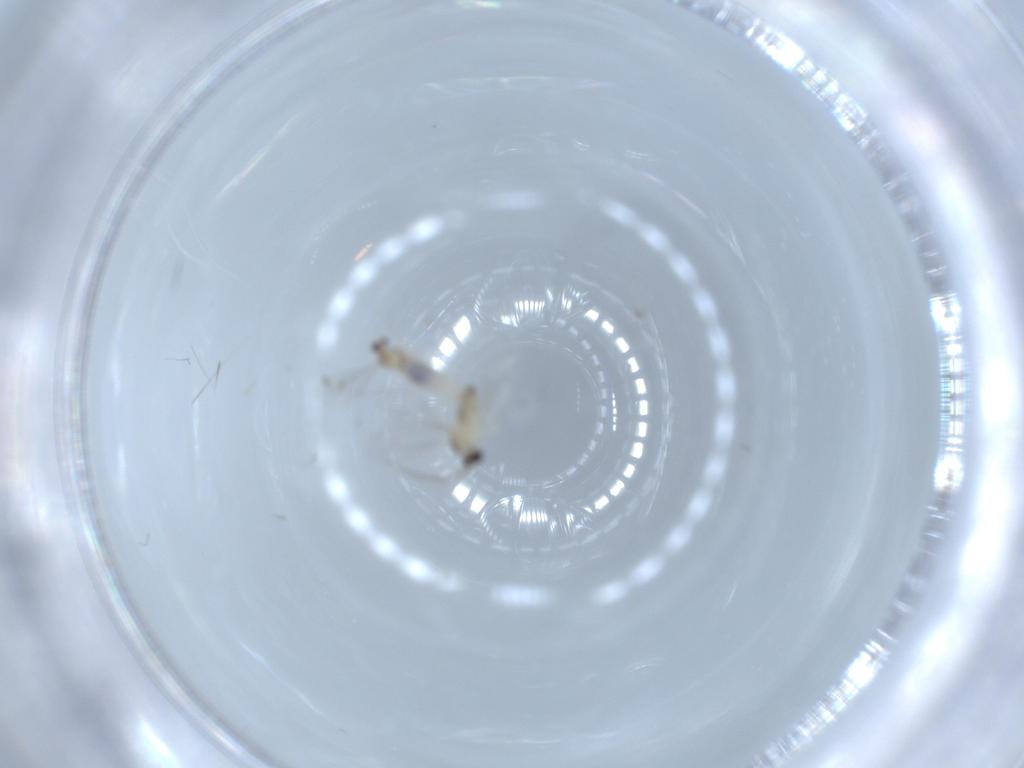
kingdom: Animalia
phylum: Arthropoda
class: Insecta
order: Diptera
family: Cecidomyiidae
